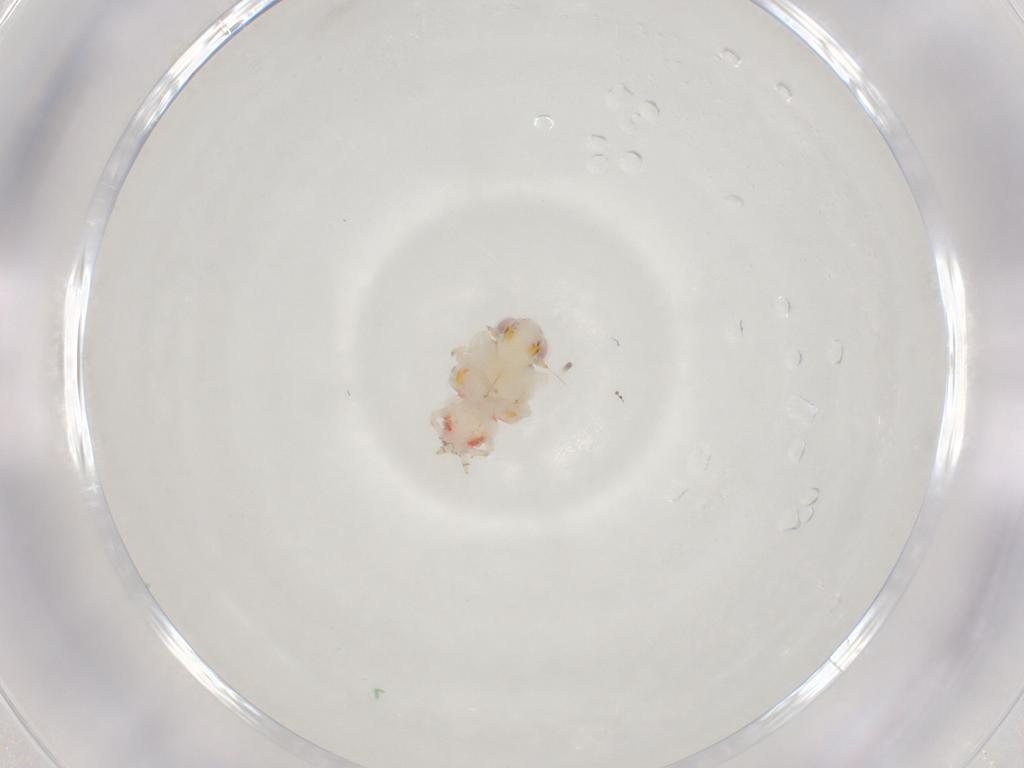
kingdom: Animalia
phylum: Arthropoda
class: Insecta
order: Hemiptera
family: Nogodinidae
